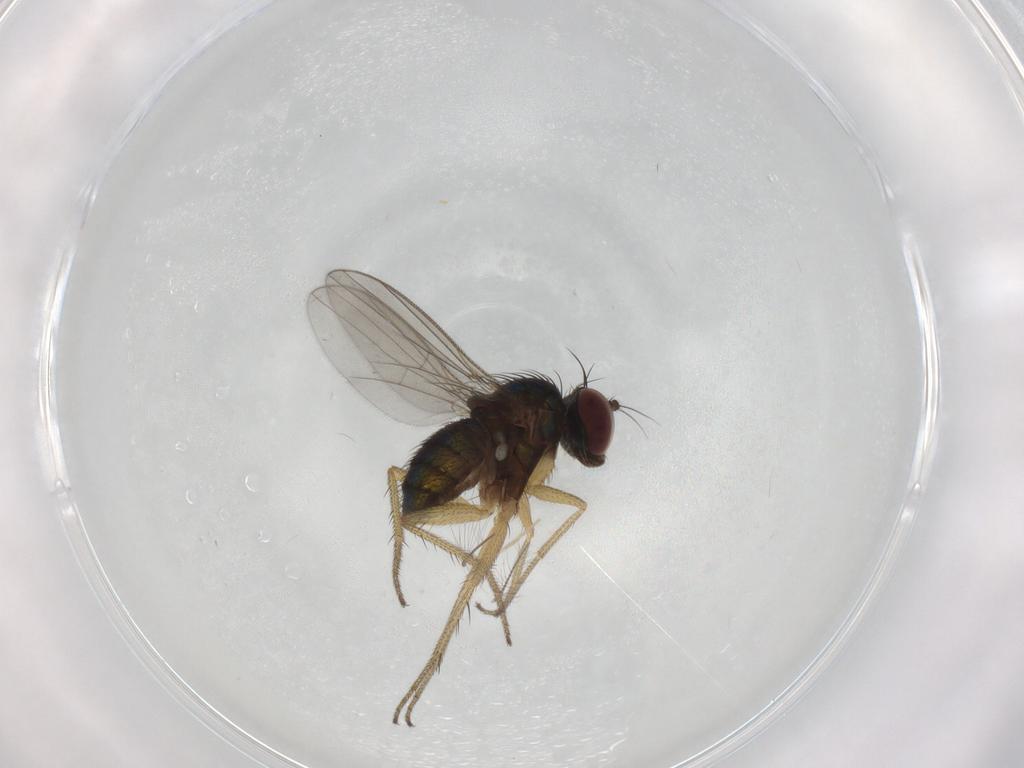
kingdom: Animalia
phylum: Arthropoda
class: Insecta
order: Diptera
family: Chironomidae
